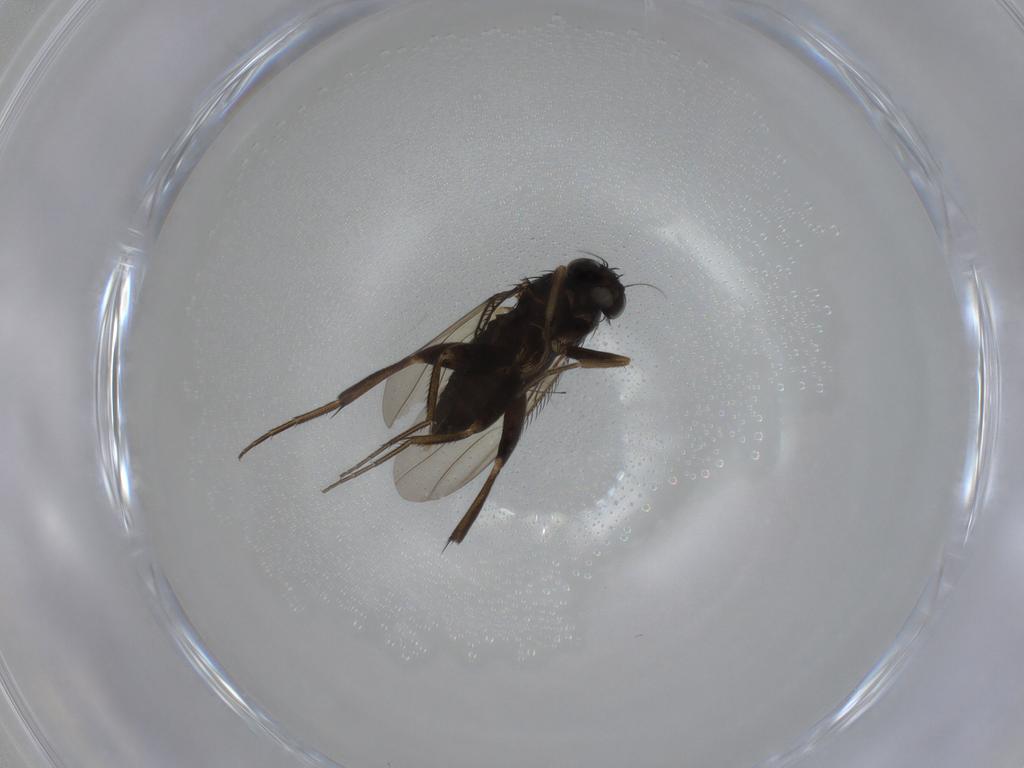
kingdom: Animalia
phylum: Arthropoda
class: Insecta
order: Diptera
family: Phoridae
